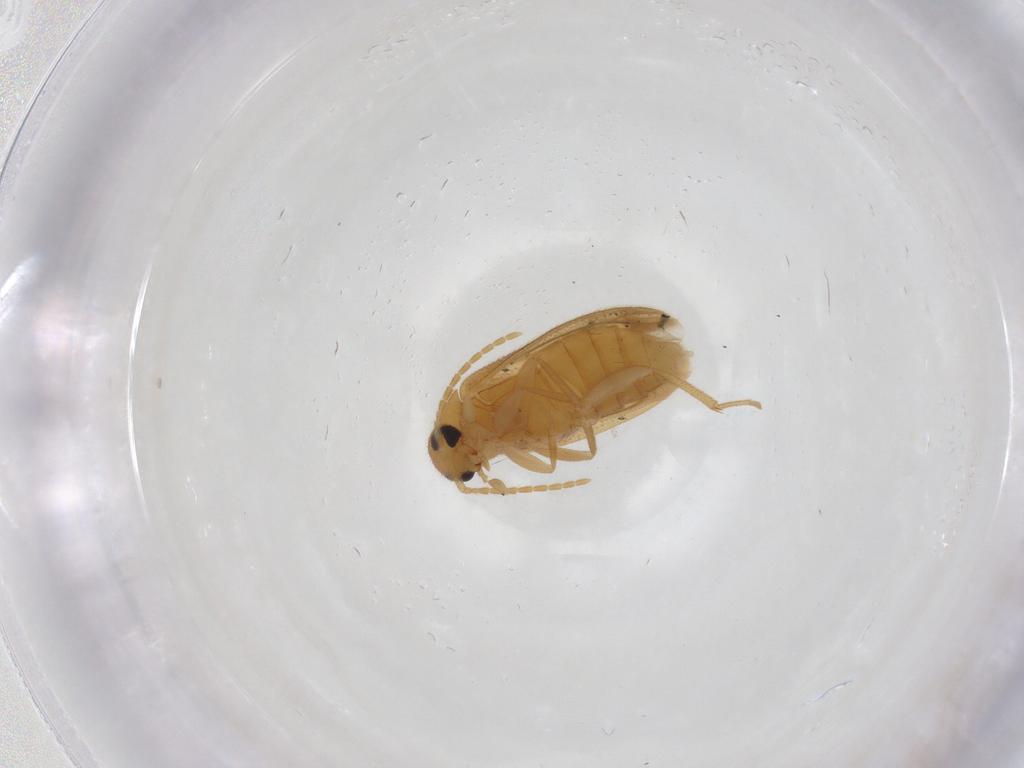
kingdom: Animalia
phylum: Arthropoda
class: Insecta
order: Coleoptera
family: Scraptiidae
